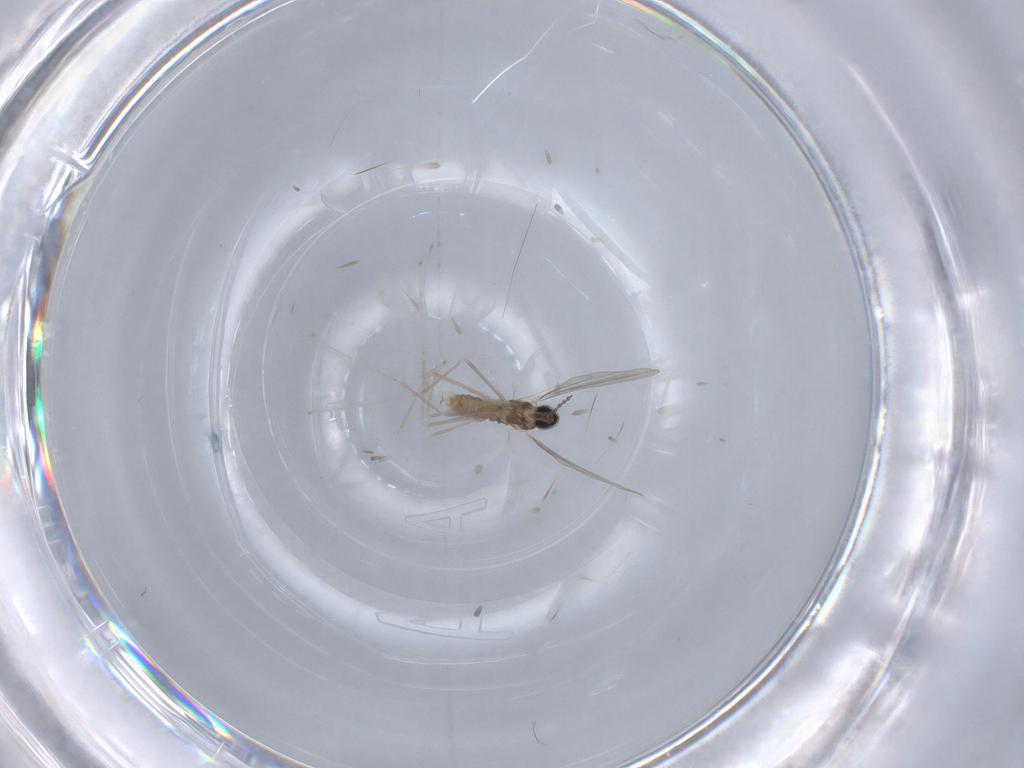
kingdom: Animalia
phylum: Arthropoda
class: Insecta
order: Diptera
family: Cecidomyiidae
